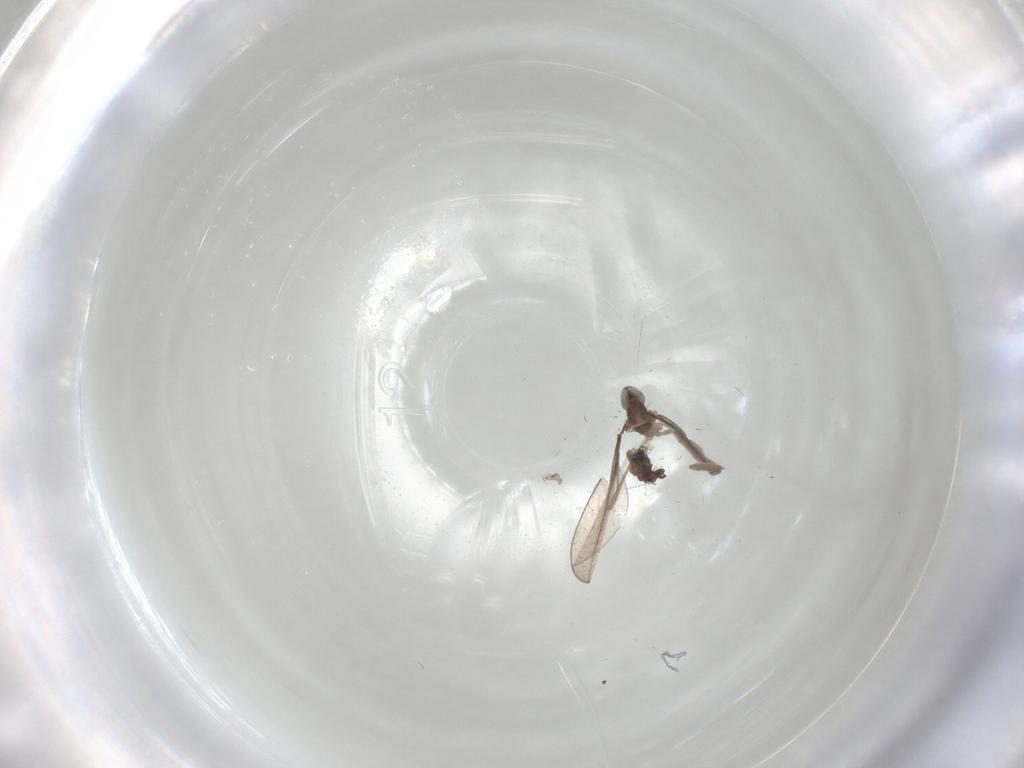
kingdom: Animalia
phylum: Arthropoda
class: Insecta
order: Diptera
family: Cecidomyiidae
